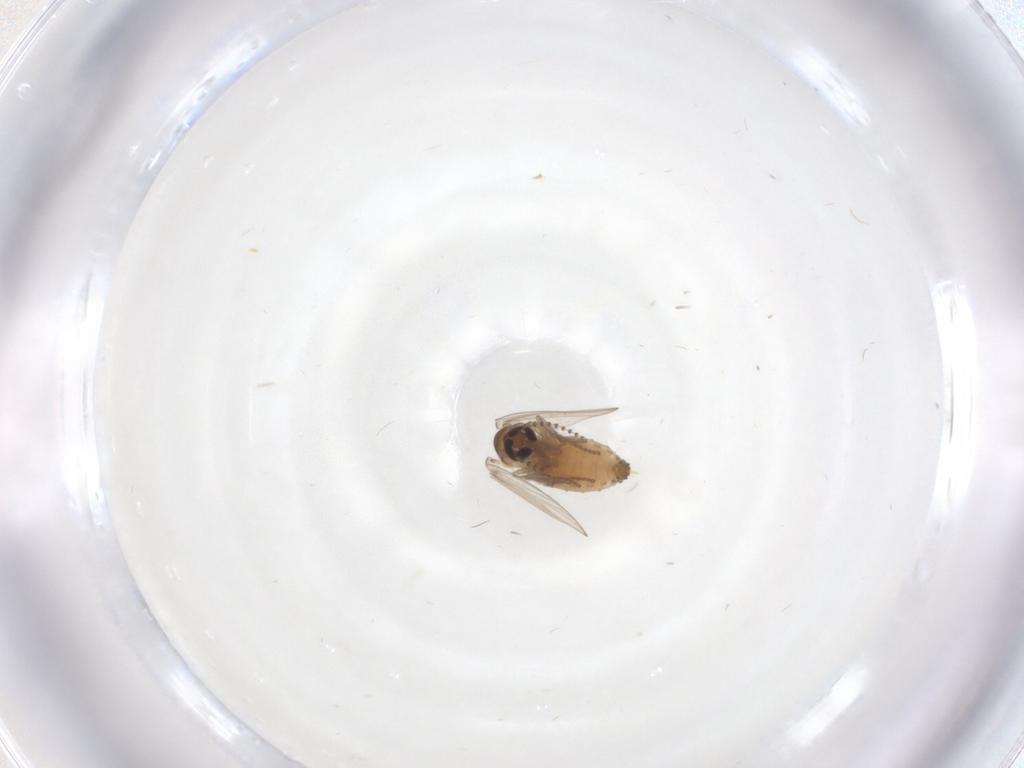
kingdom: Animalia
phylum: Arthropoda
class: Insecta
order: Diptera
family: Psychodidae
